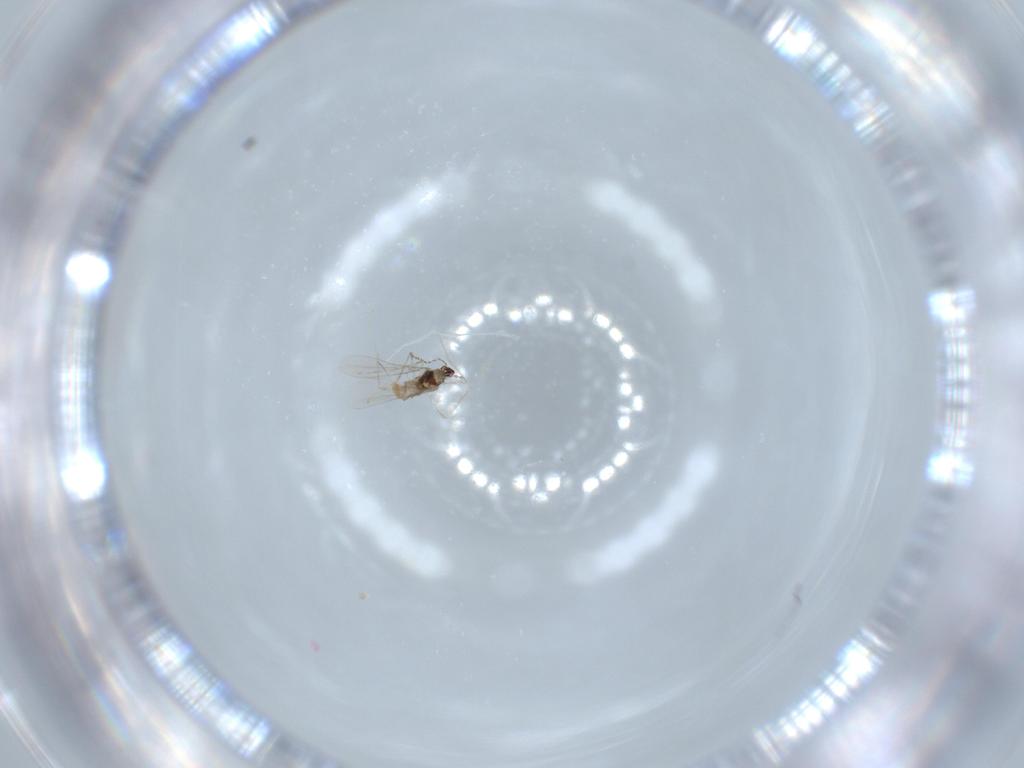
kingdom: Animalia
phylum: Arthropoda
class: Insecta
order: Diptera
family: Cecidomyiidae
